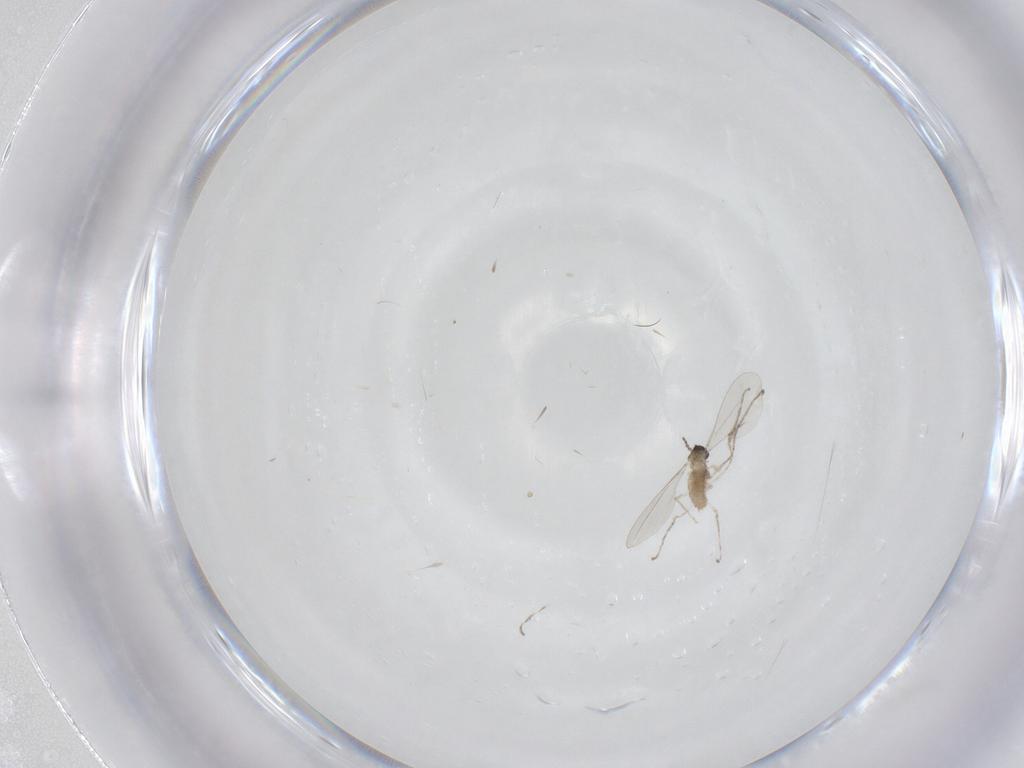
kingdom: Animalia
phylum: Arthropoda
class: Insecta
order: Diptera
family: Cecidomyiidae
